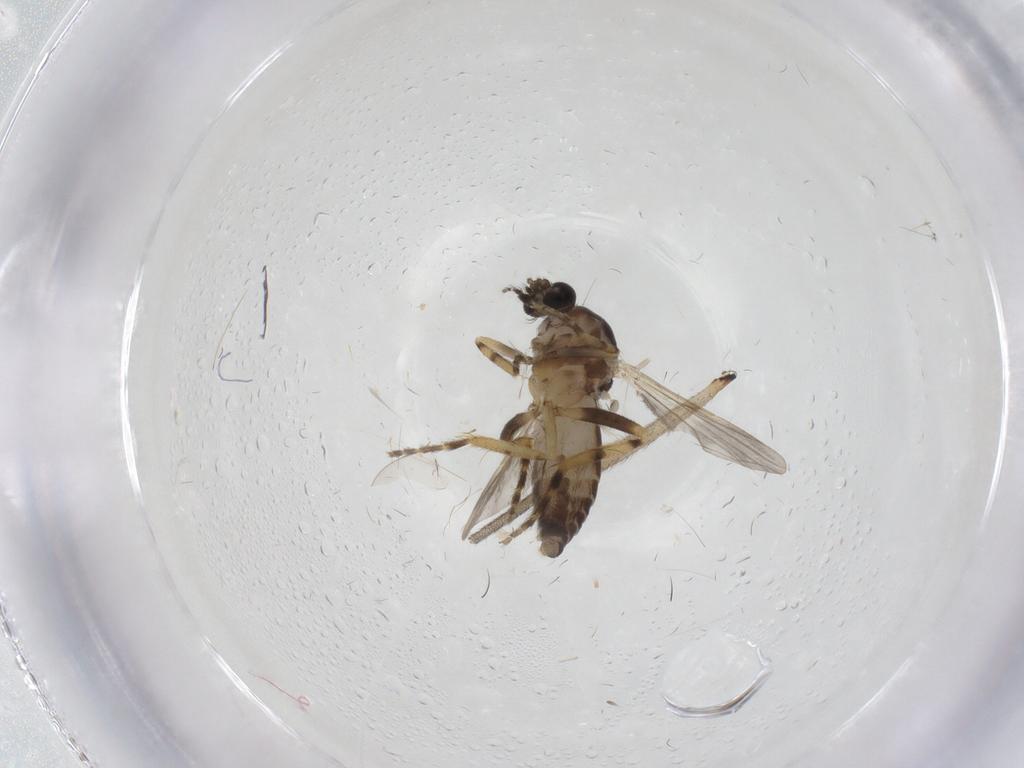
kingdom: Animalia
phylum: Arthropoda
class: Insecta
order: Diptera
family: Ceratopogonidae
